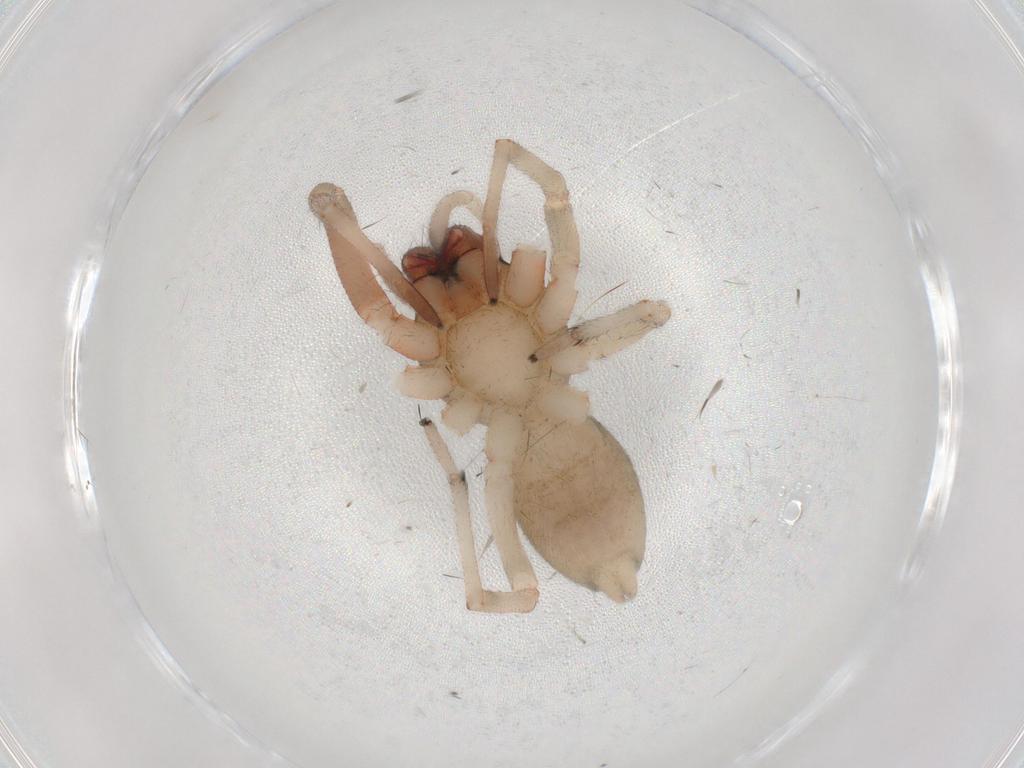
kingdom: Animalia
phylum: Arthropoda
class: Arachnida
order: Araneae
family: Trachelidae
